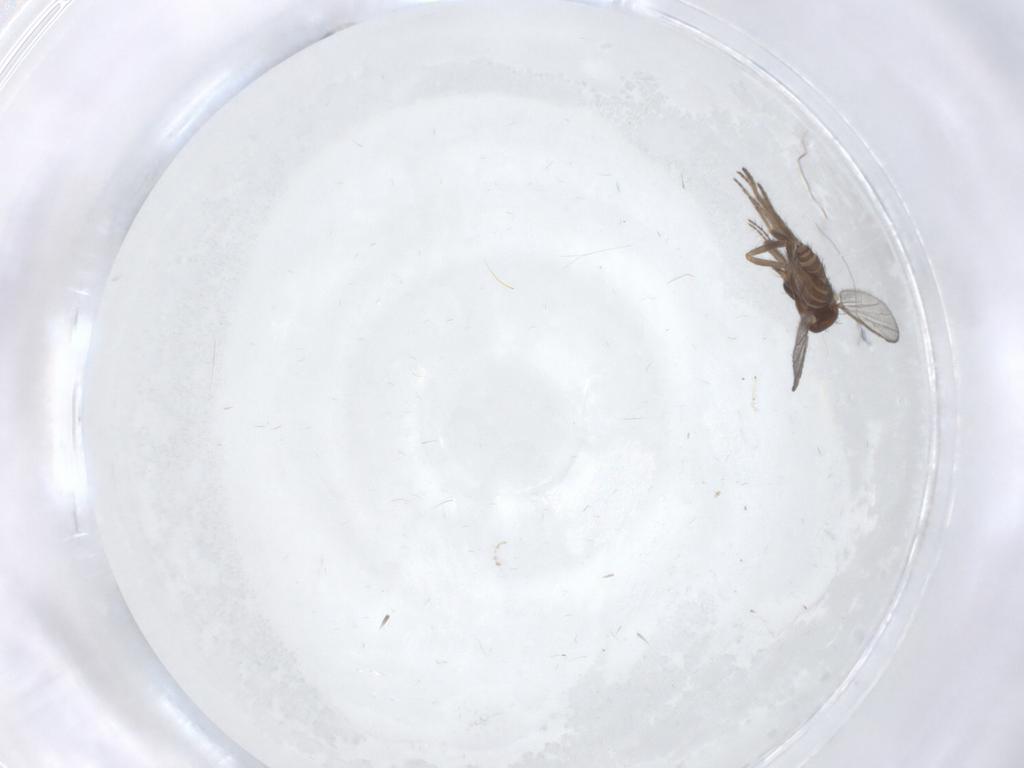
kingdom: Animalia
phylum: Arthropoda
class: Insecta
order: Diptera
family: Ceratopogonidae
